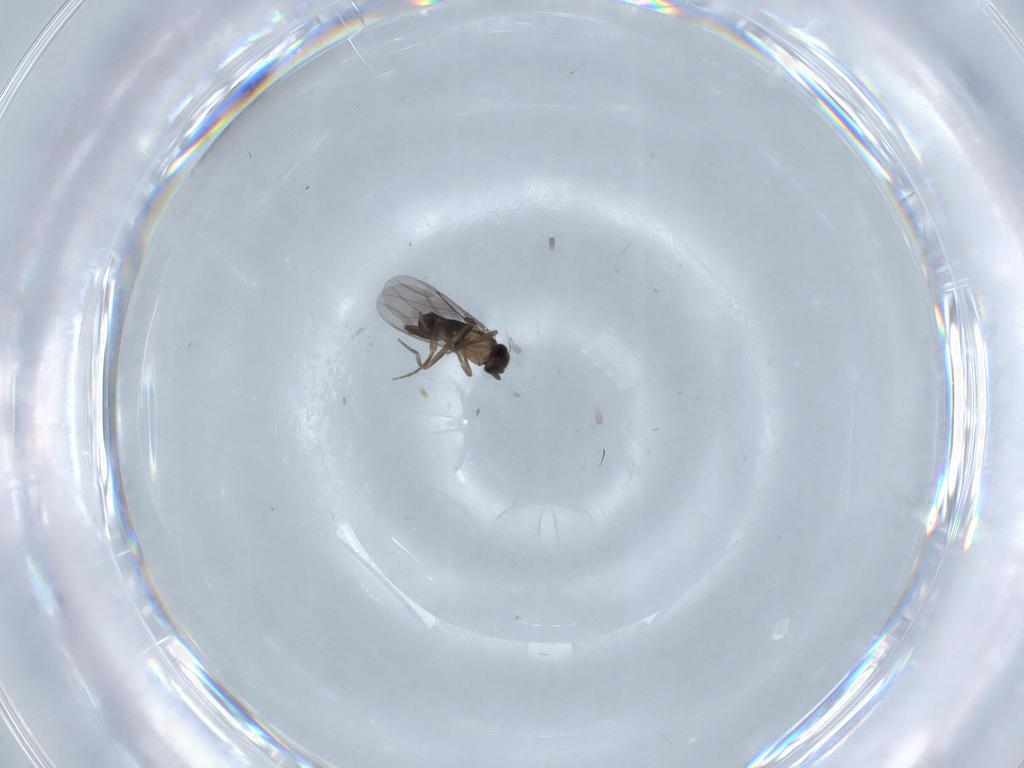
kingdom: Animalia
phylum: Arthropoda
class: Insecta
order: Diptera
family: Chironomidae
